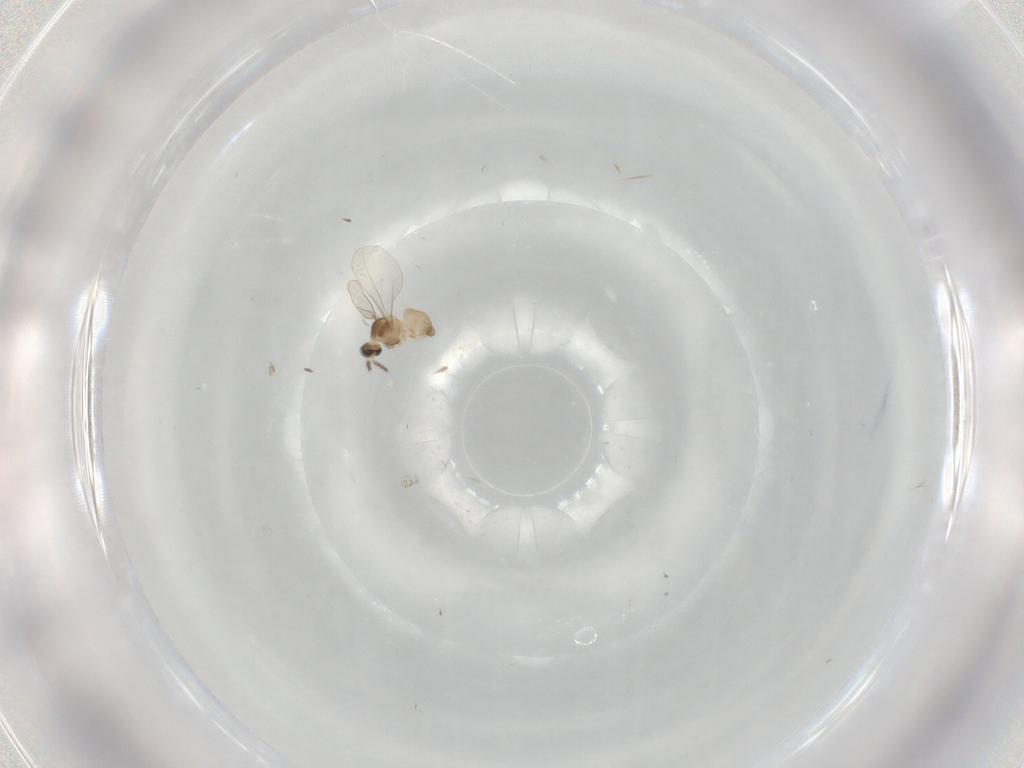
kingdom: Animalia
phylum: Arthropoda
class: Insecta
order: Diptera
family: Cecidomyiidae
